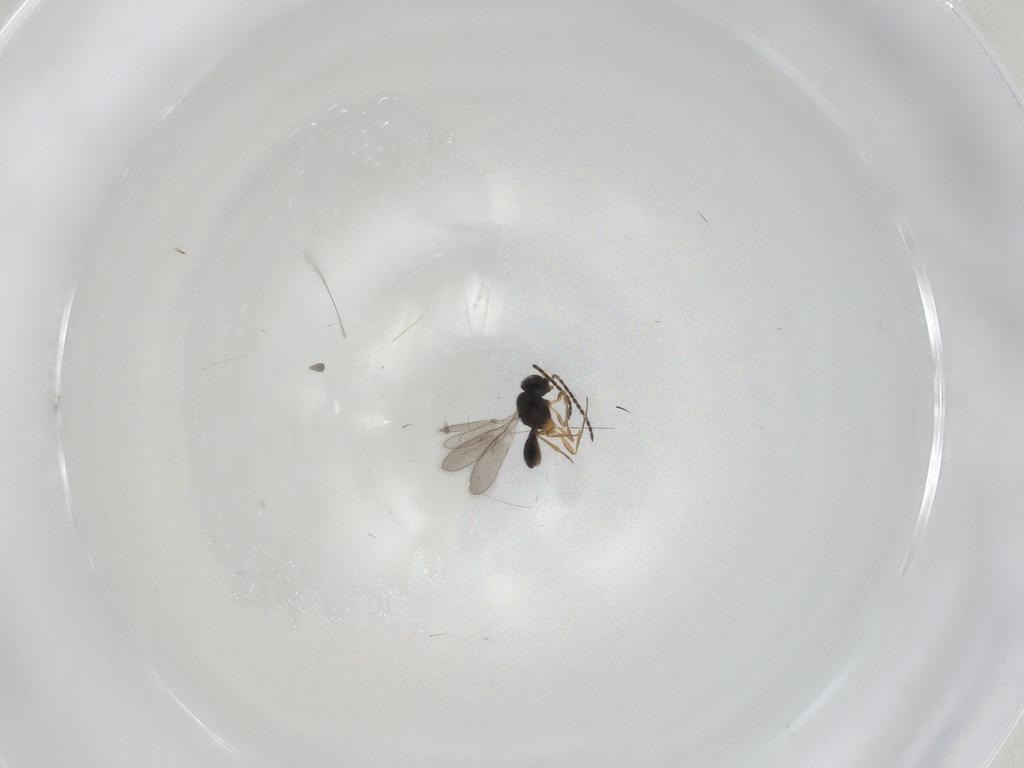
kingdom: Animalia
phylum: Arthropoda
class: Insecta
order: Hymenoptera
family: Scelionidae
